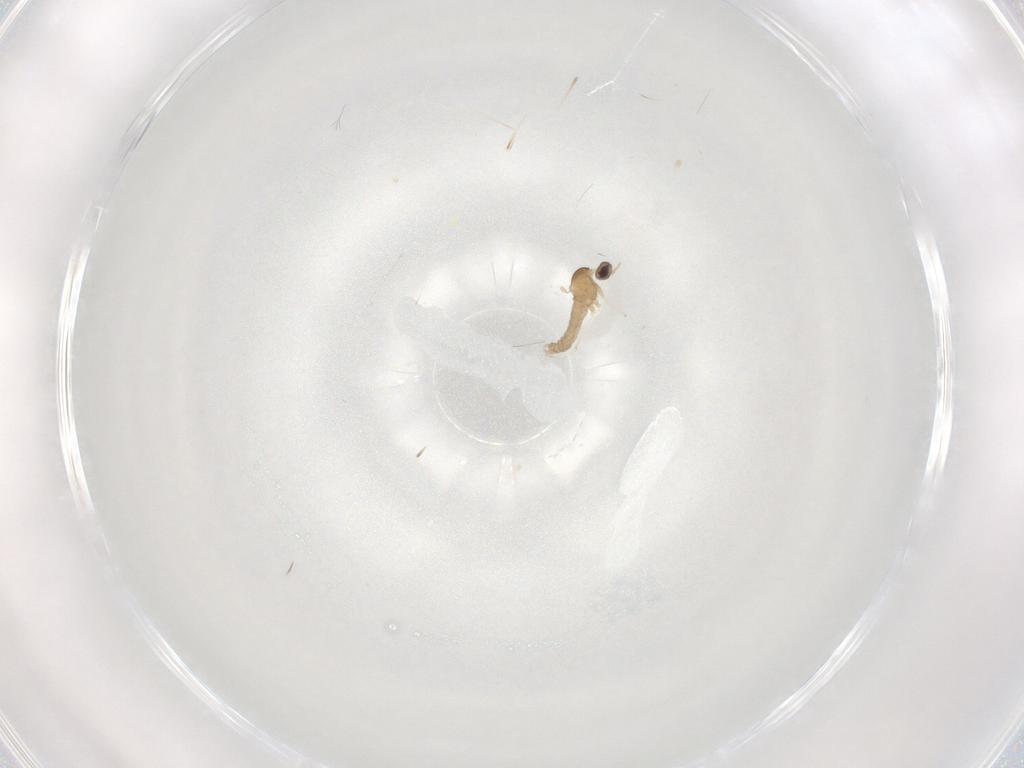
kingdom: Animalia
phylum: Arthropoda
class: Insecta
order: Diptera
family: Cecidomyiidae
